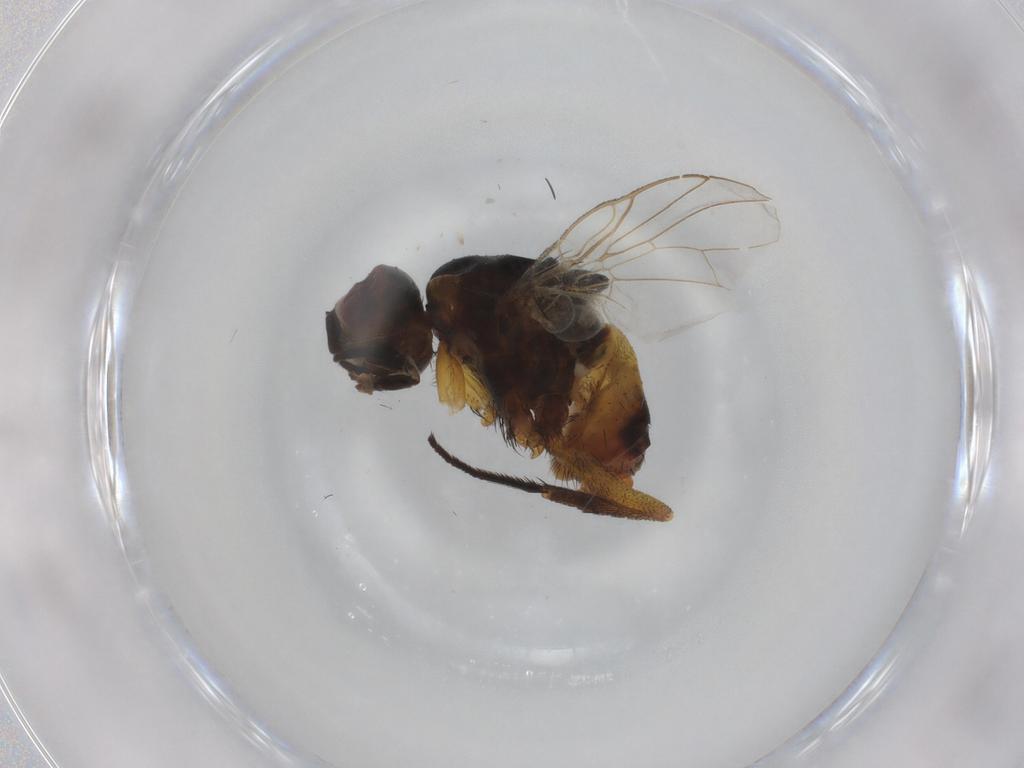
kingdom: Animalia
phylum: Arthropoda
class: Insecta
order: Diptera
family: Muscidae
